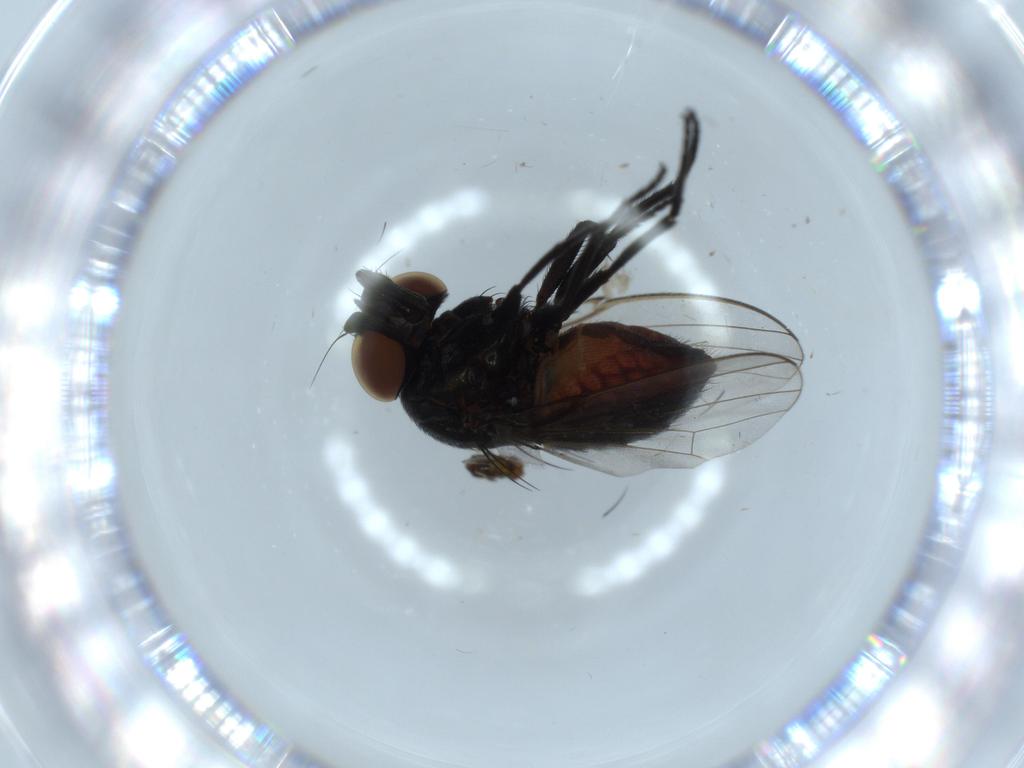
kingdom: Animalia
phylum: Arthropoda
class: Insecta
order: Diptera
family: Milichiidae
